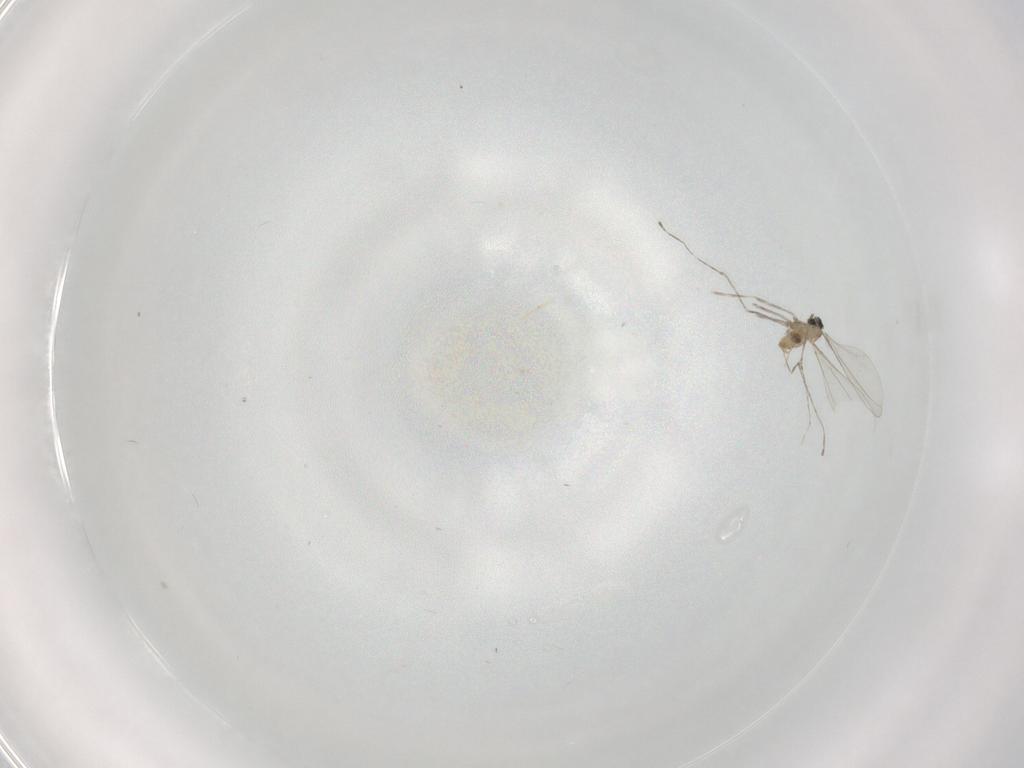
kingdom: Animalia
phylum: Arthropoda
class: Insecta
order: Diptera
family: Cecidomyiidae
